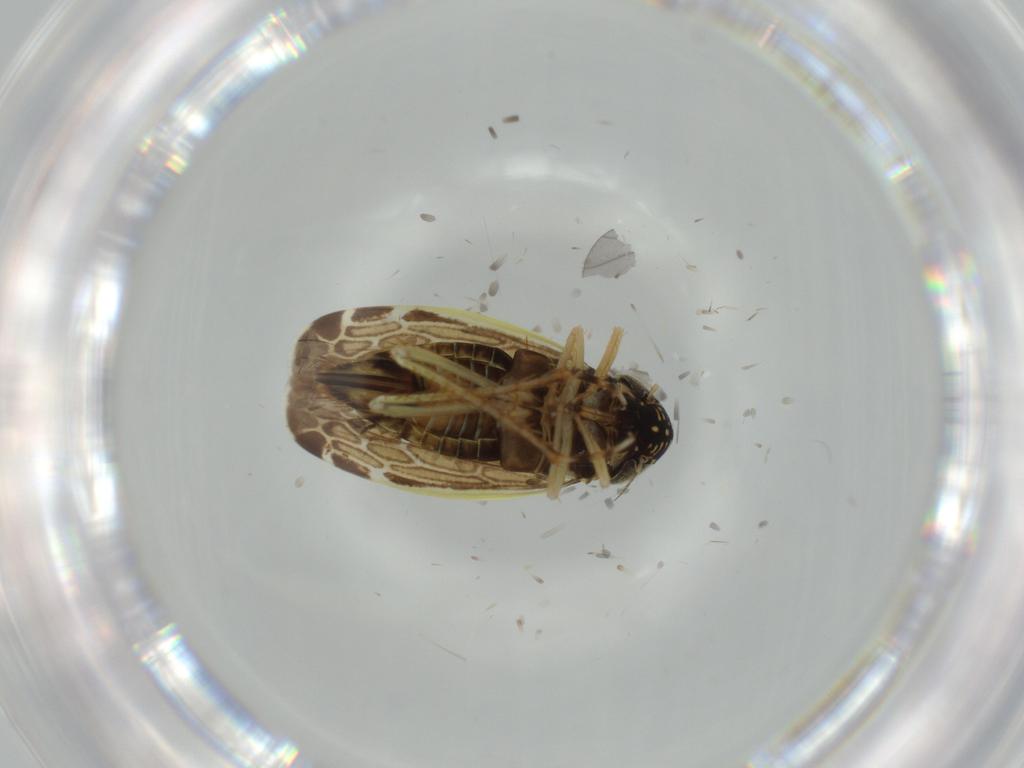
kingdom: Animalia
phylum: Arthropoda
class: Insecta
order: Hemiptera
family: Cicadellidae
